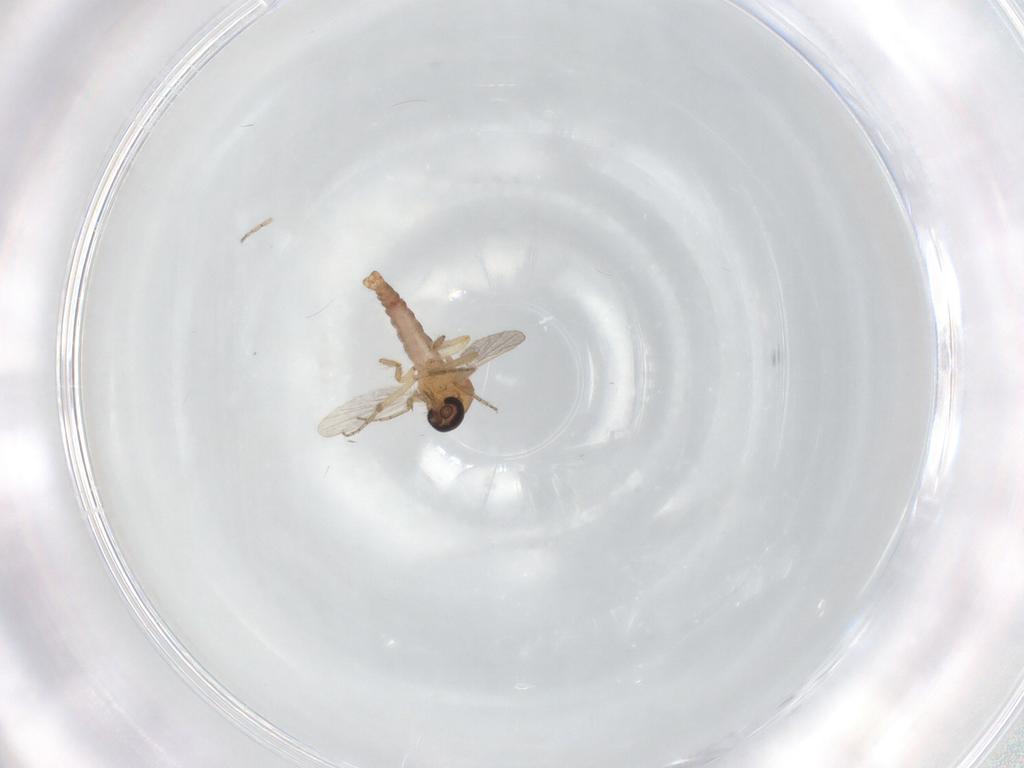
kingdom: Animalia
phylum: Arthropoda
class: Insecta
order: Diptera
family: Ceratopogonidae
